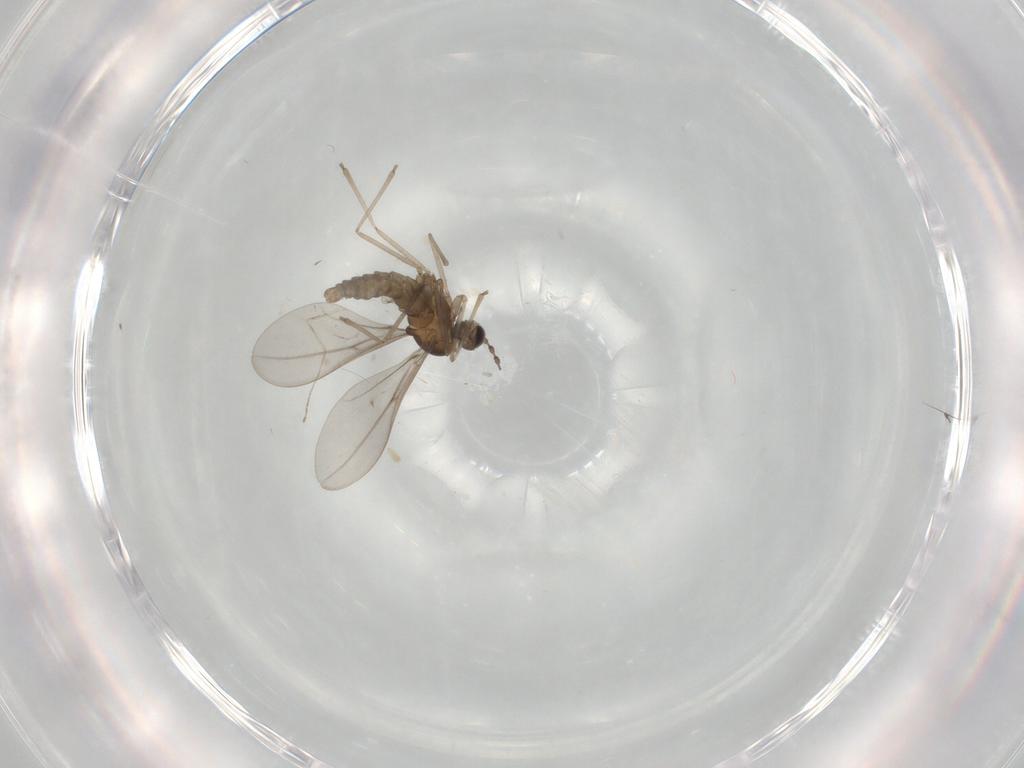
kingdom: Animalia
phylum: Arthropoda
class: Insecta
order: Diptera
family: Cecidomyiidae
